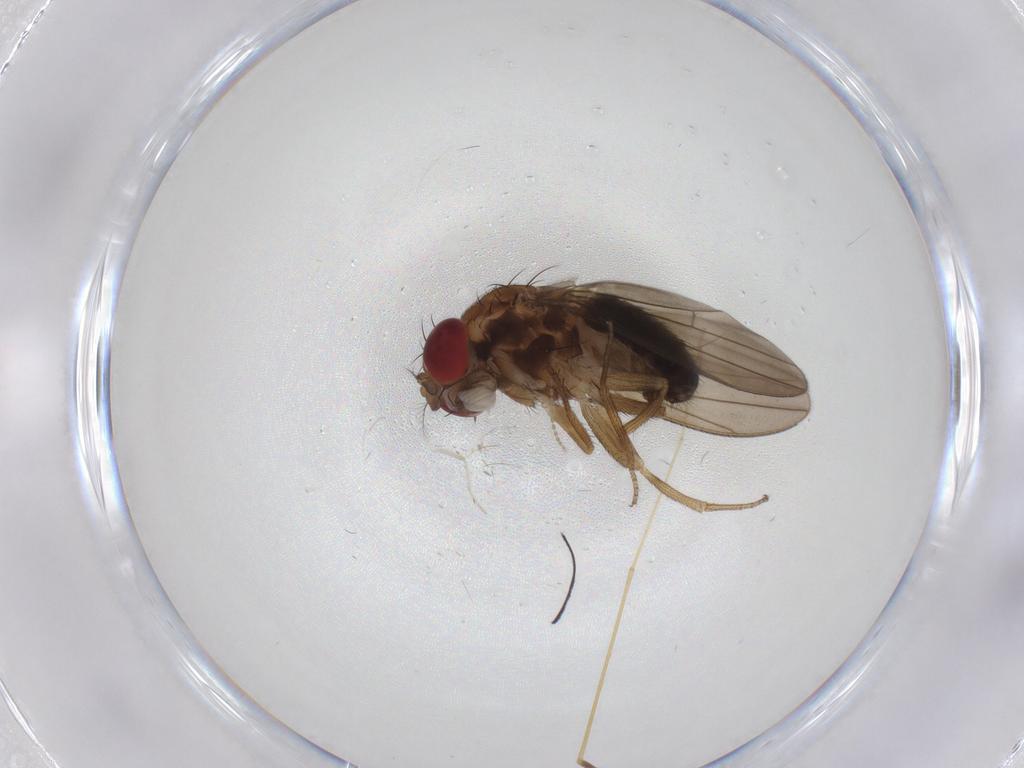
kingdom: Animalia
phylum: Arthropoda
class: Insecta
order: Diptera
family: Drosophilidae
